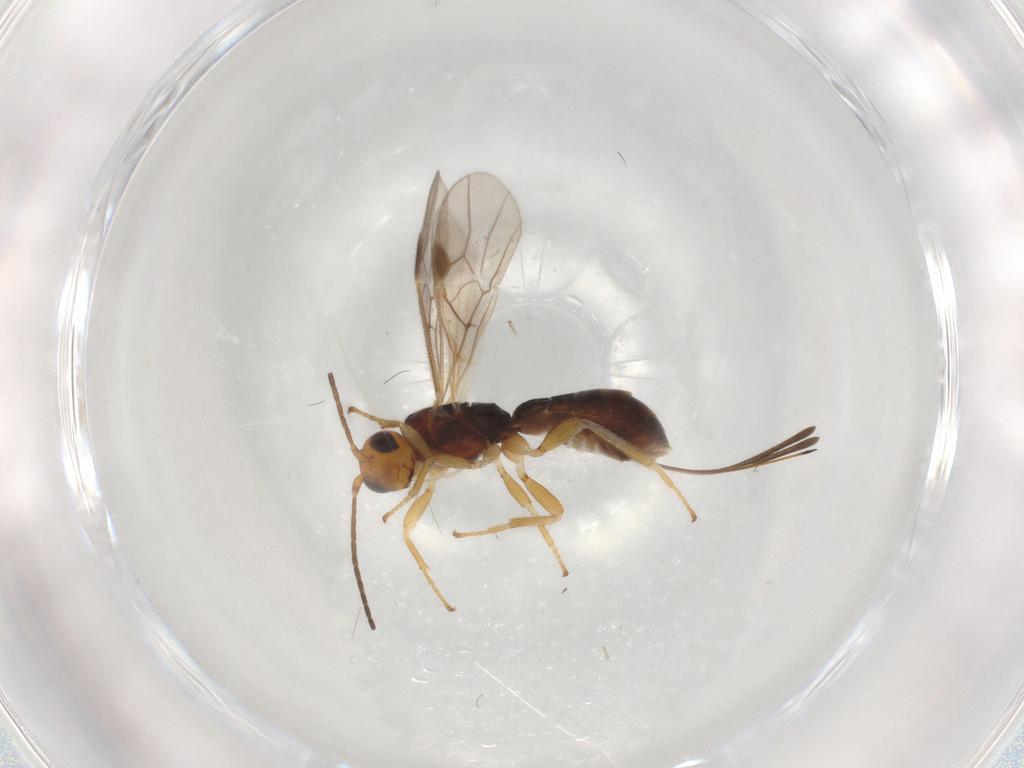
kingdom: Animalia
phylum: Arthropoda
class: Insecta
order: Hymenoptera
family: Braconidae
